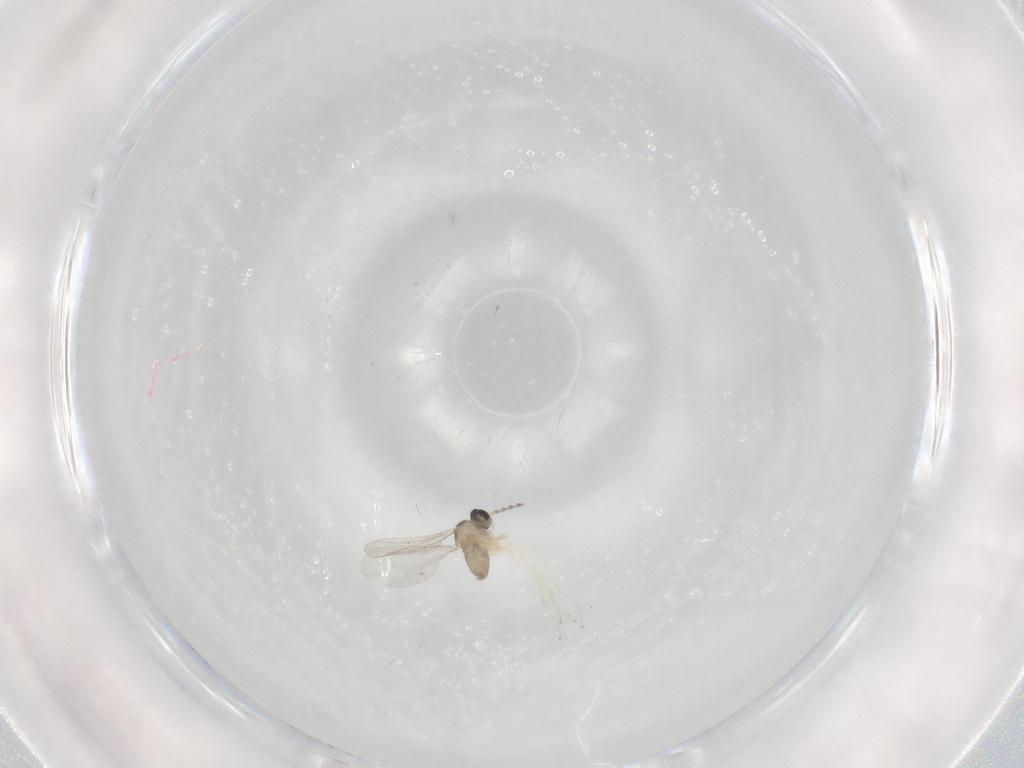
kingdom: Animalia
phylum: Arthropoda
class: Insecta
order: Diptera
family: Cecidomyiidae
